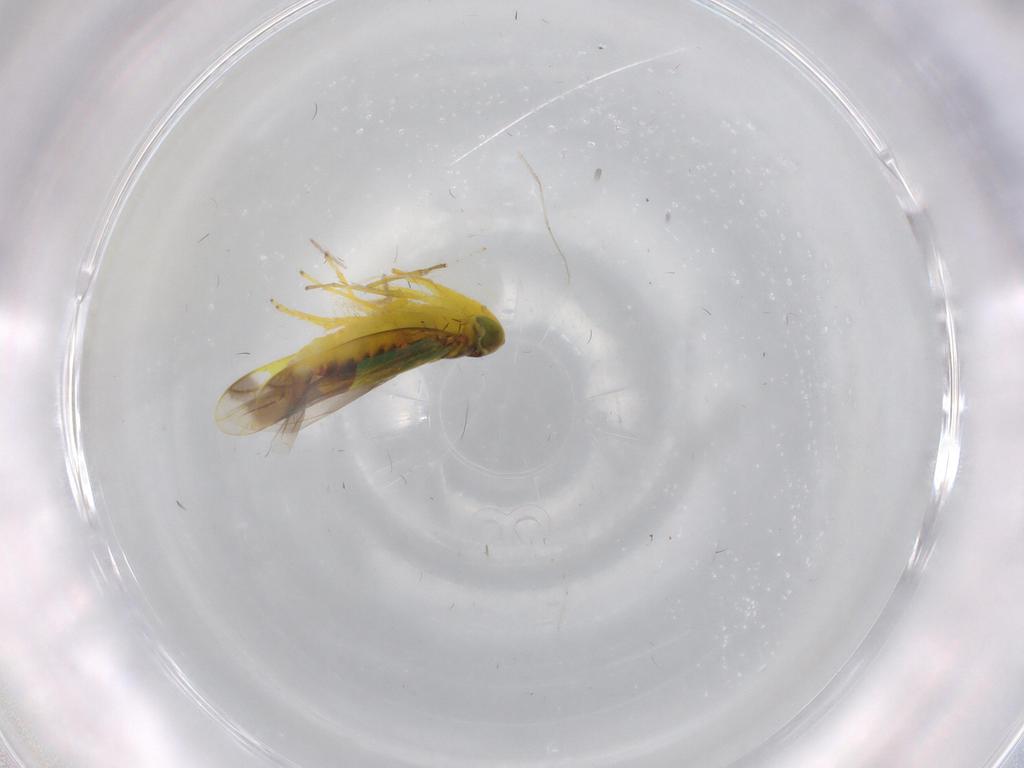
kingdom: Animalia
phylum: Arthropoda
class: Insecta
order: Hemiptera
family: Cicadellidae
